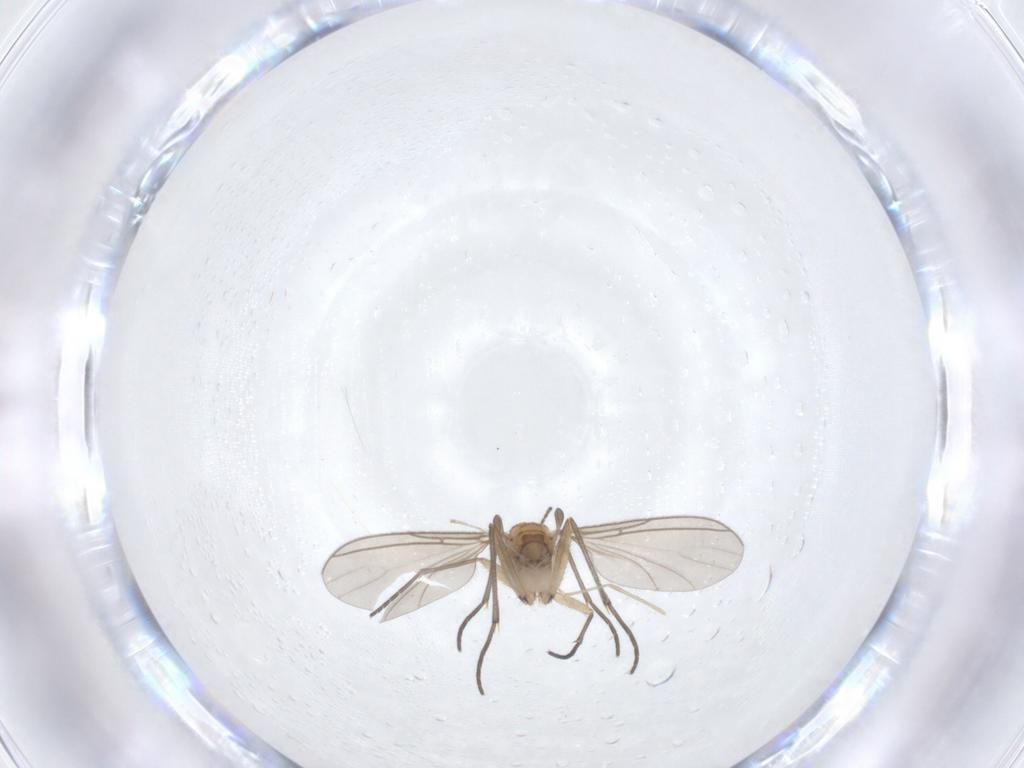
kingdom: Animalia
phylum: Arthropoda
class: Insecta
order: Diptera
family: Sciaridae
